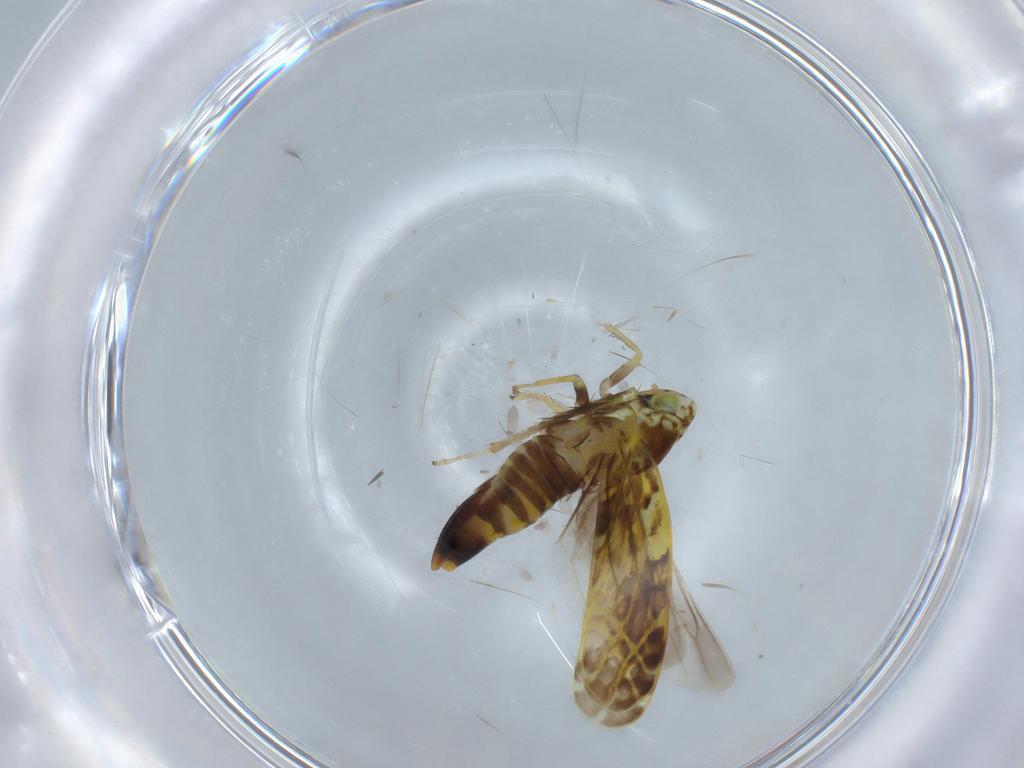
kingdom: Animalia
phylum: Arthropoda
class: Insecta
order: Hemiptera
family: Cicadellidae
